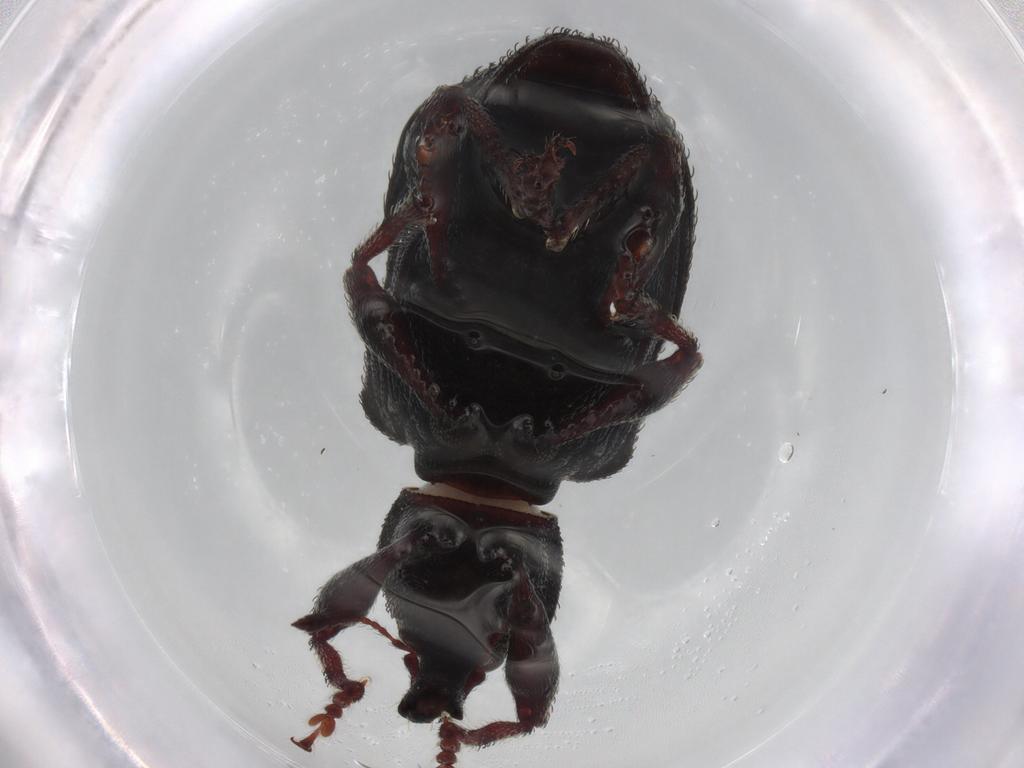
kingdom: Animalia
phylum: Arthropoda
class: Insecta
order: Coleoptera
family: Curculionidae
